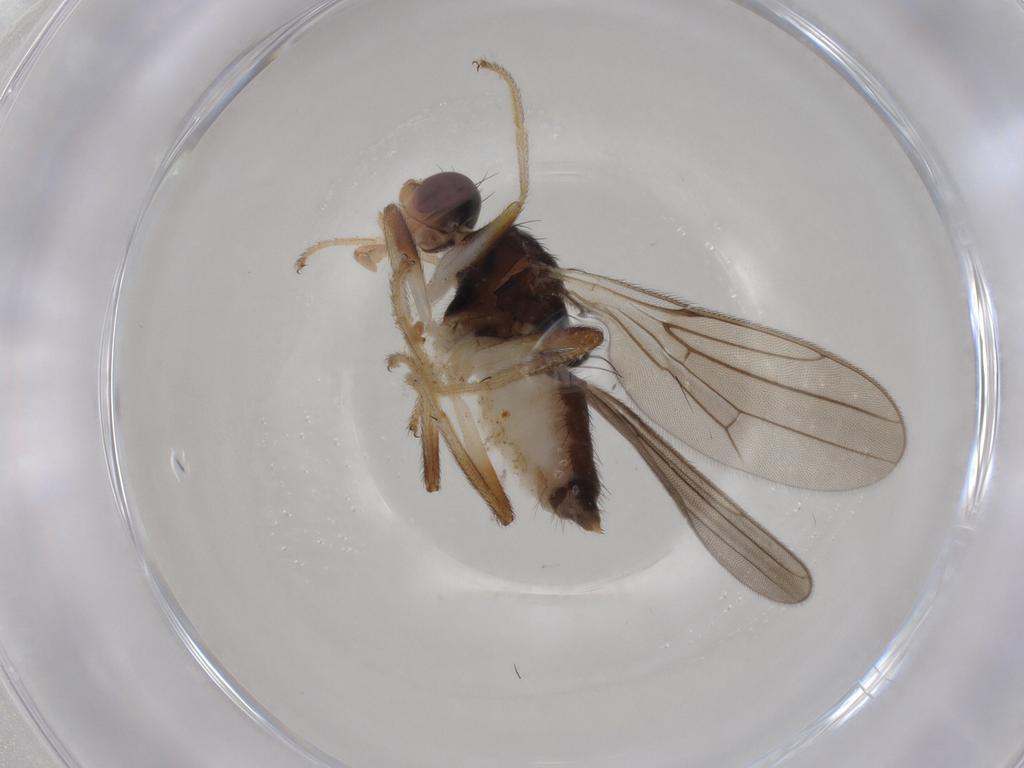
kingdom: Animalia
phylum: Arthropoda
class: Insecta
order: Diptera
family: Chloropidae
